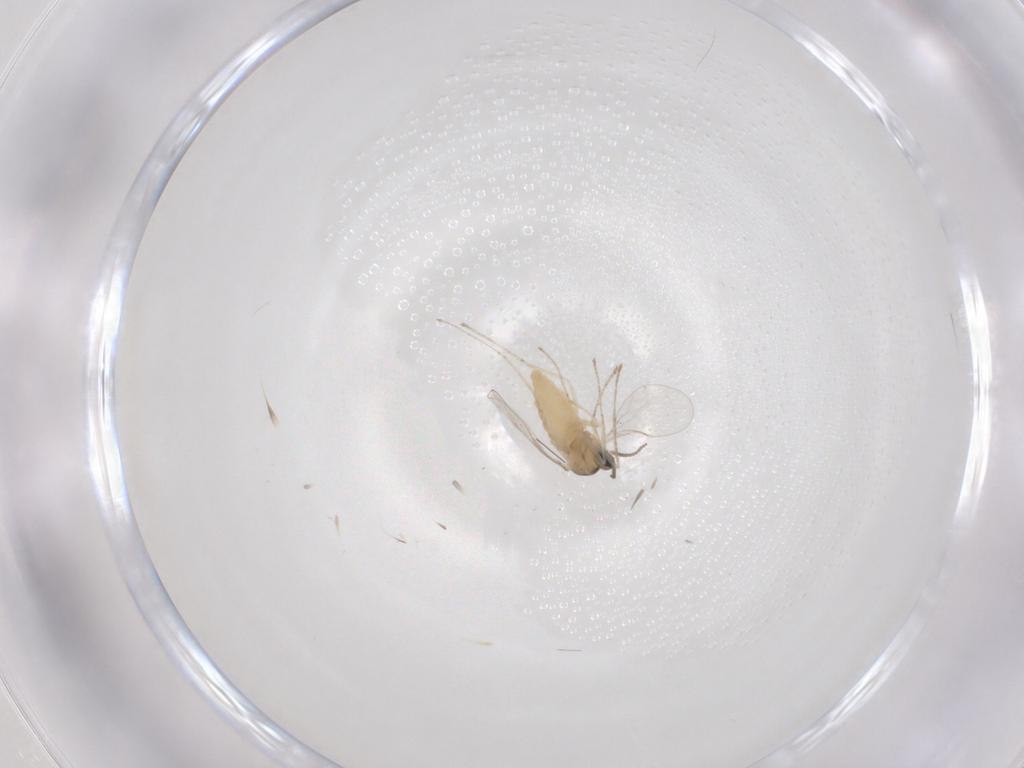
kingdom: Animalia
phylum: Arthropoda
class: Insecta
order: Diptera
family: Cecidomyiidae
